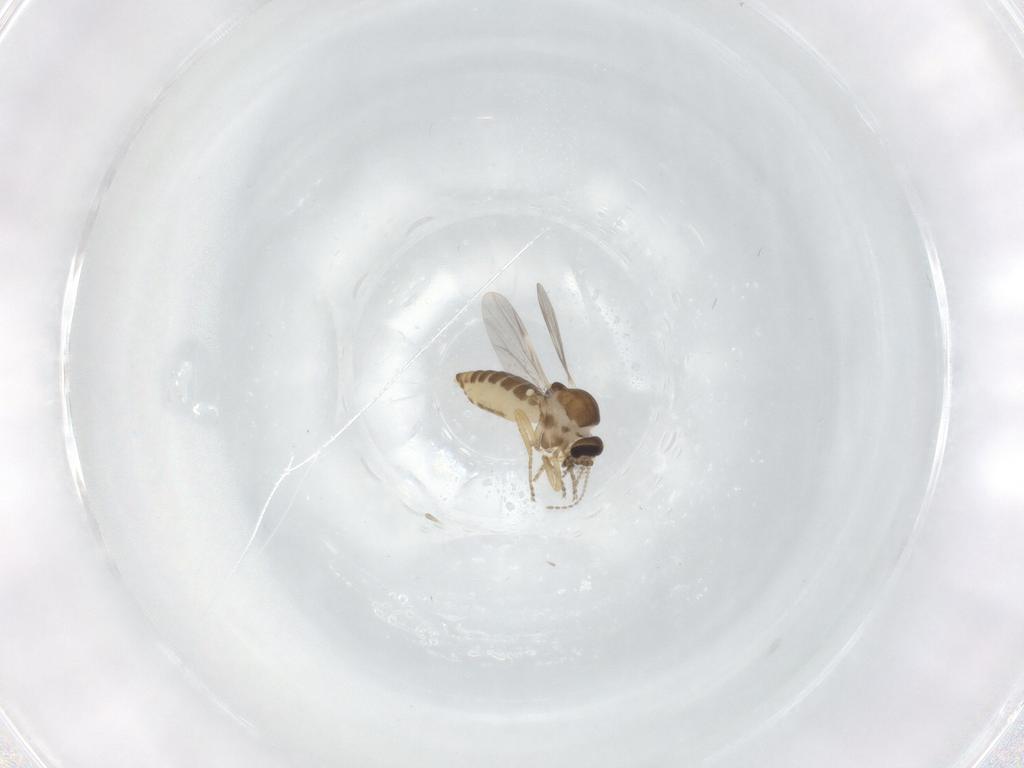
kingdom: Animalia
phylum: Arthropoda
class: Insecta
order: Diptera
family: Ceratopogonidae
